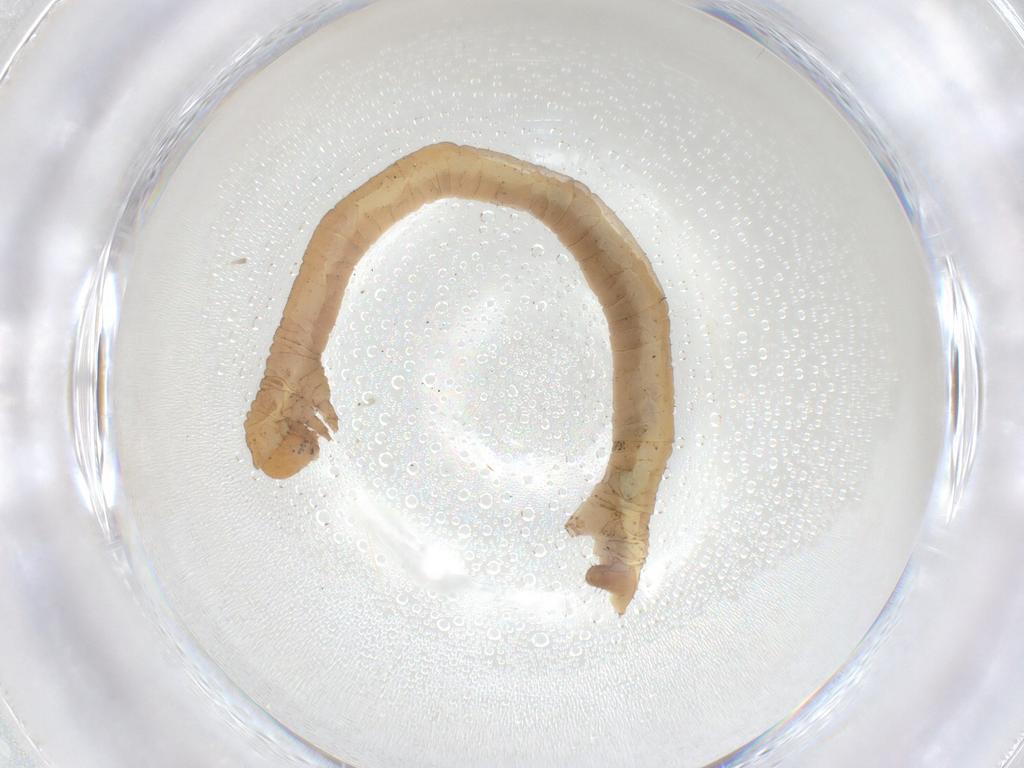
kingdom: Animalia
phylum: Arthropoda
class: Insecta
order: Lepidoptera
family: Geometridae
